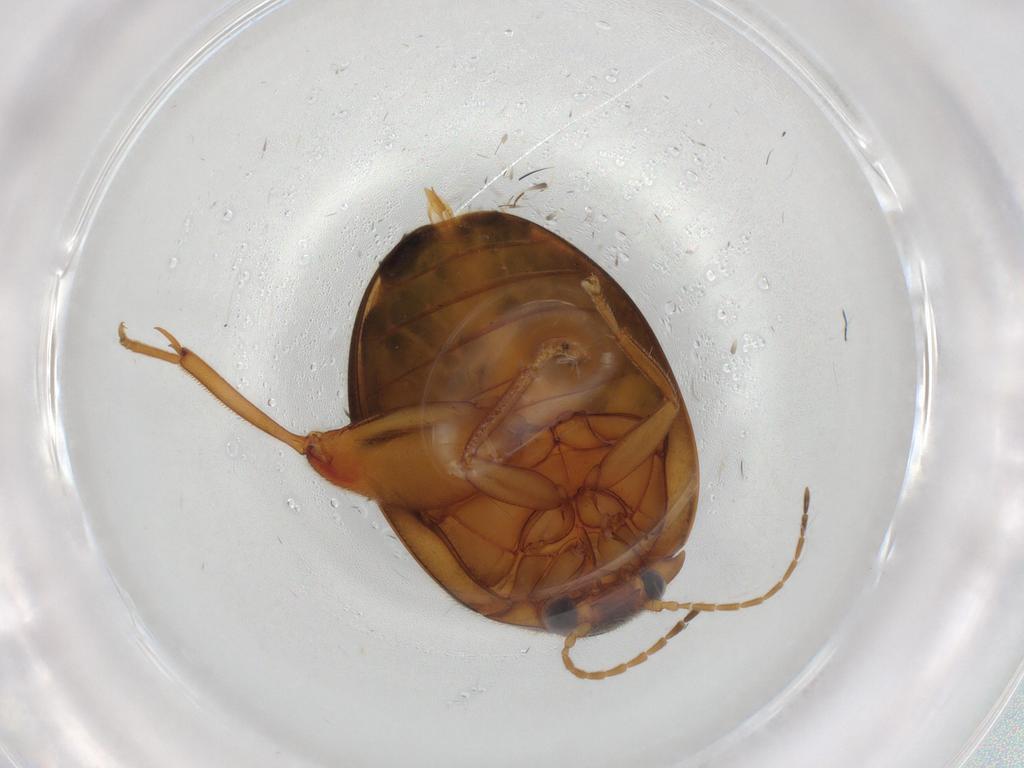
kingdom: Animalia
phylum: Arthropoda
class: Insecta
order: Coleoptera
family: Scirtidae
